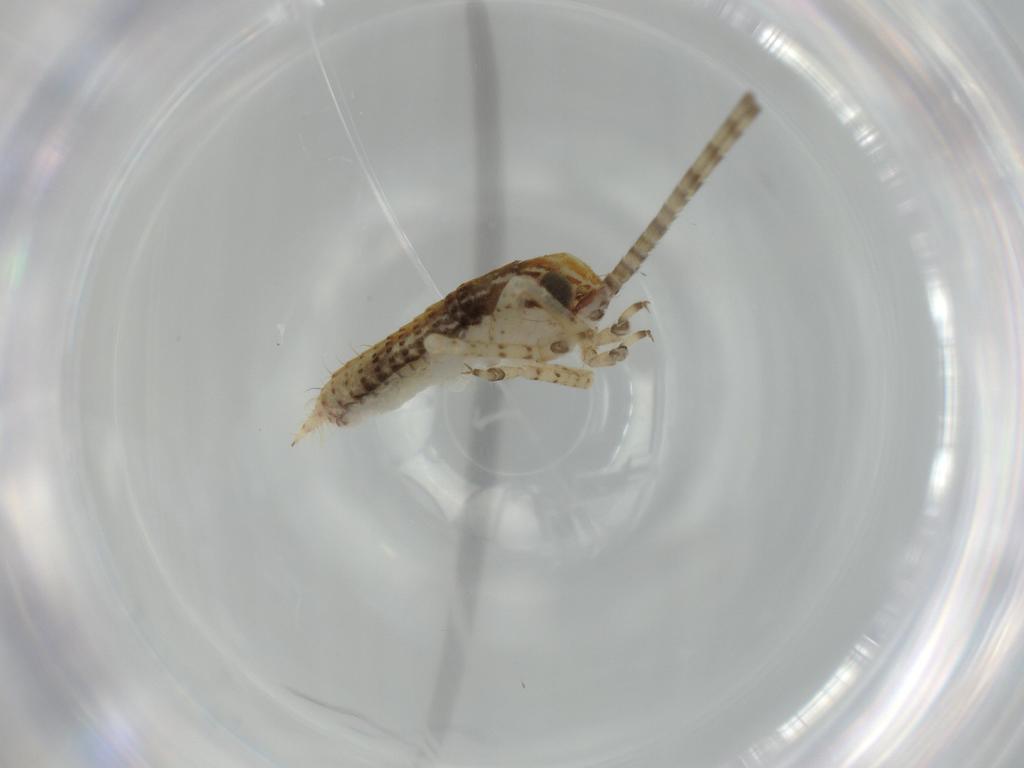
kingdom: Animalia
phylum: Arthropoda
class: Insecta
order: Orthoptera
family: Gryllidae
